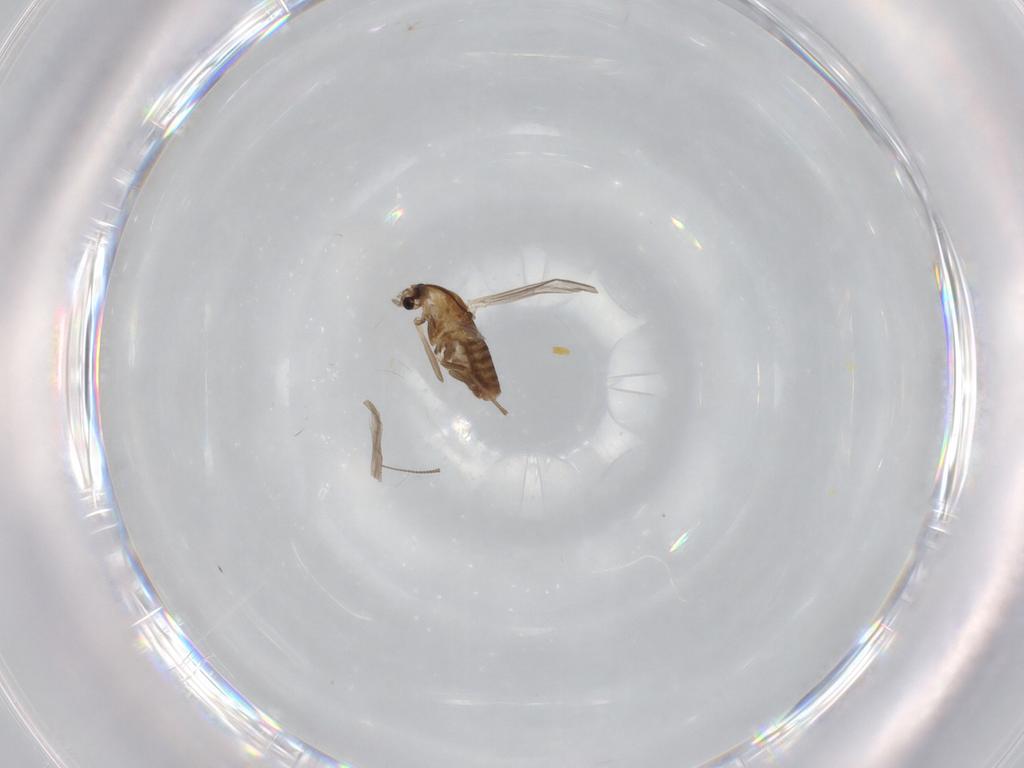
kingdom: Animalia
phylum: Arthropoda
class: Insecta
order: Diptera
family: Chironomidae
